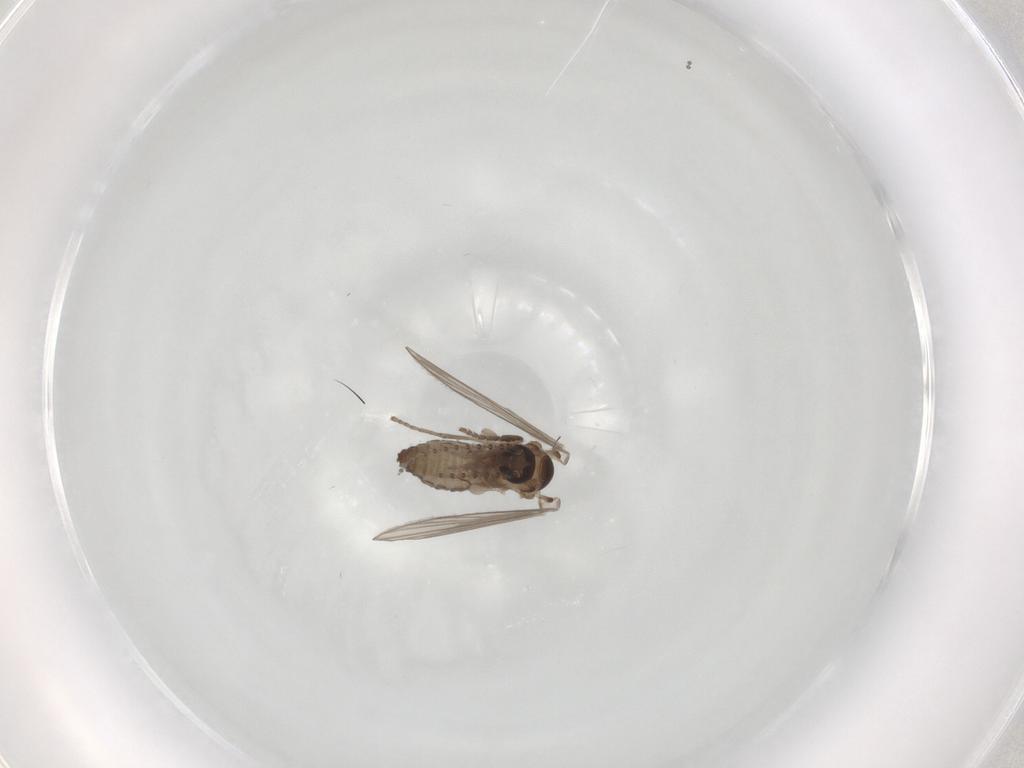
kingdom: Animalia
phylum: Arthropoda
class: Insecta
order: Diptera
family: Psychodidae
